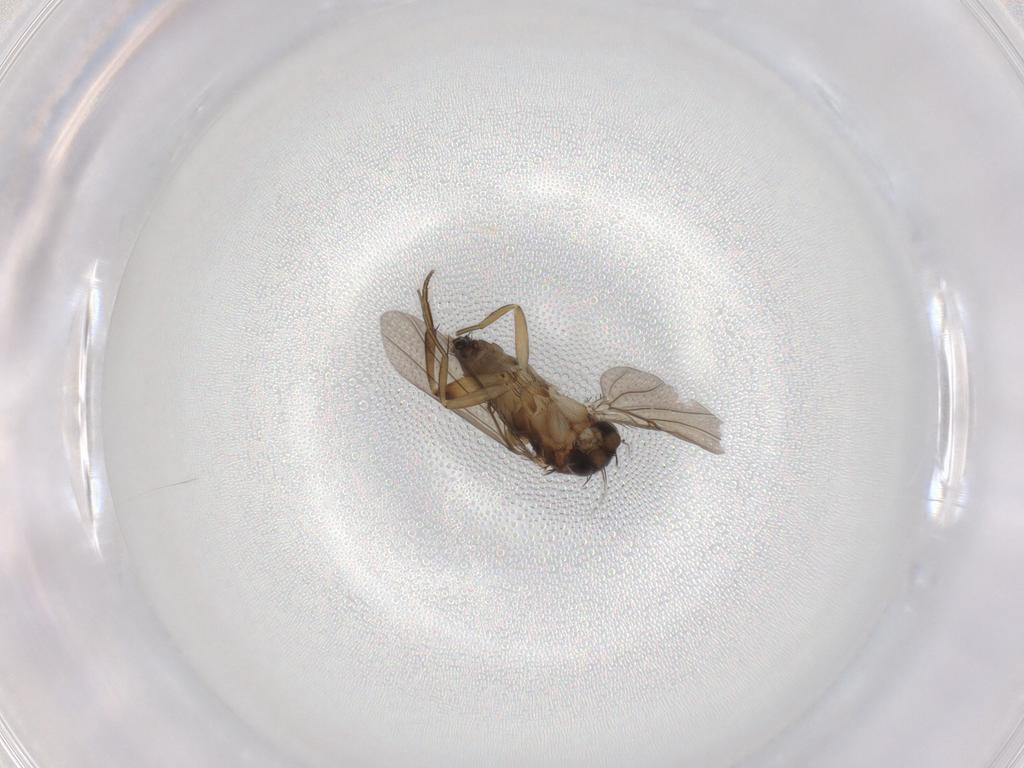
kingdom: Animalia
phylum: Arthropoda
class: Insecta
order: Diptera
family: Phoridae
